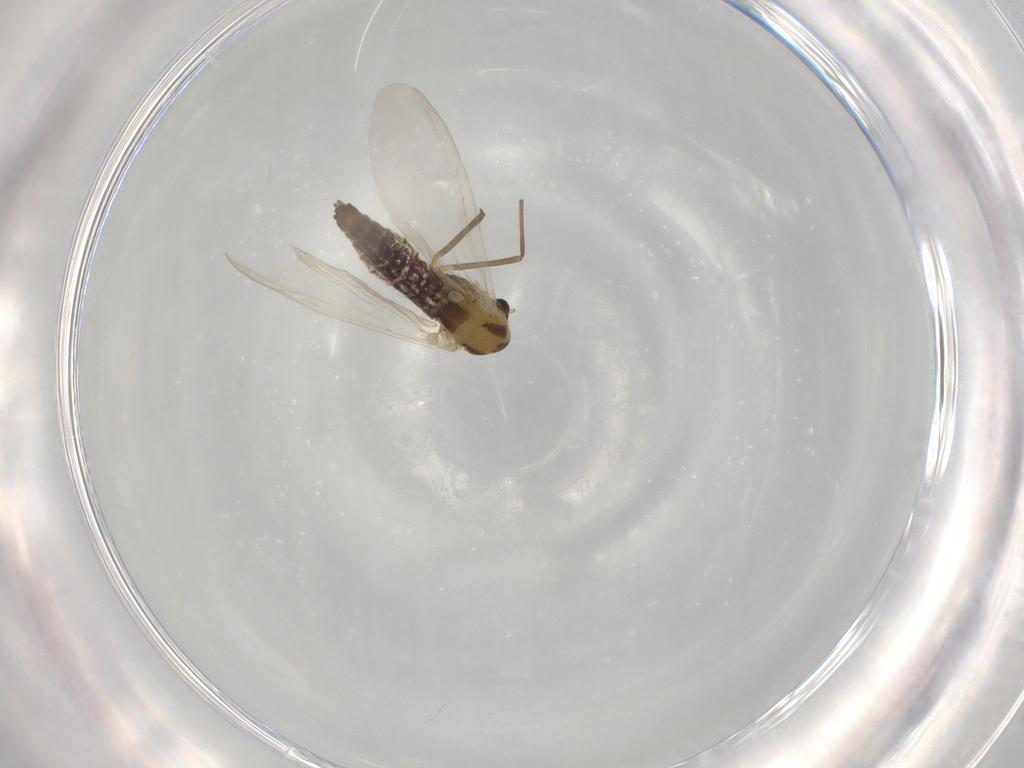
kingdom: Animalia
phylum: Arthropoda
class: Insecta
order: Diptera
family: Chironomidae
